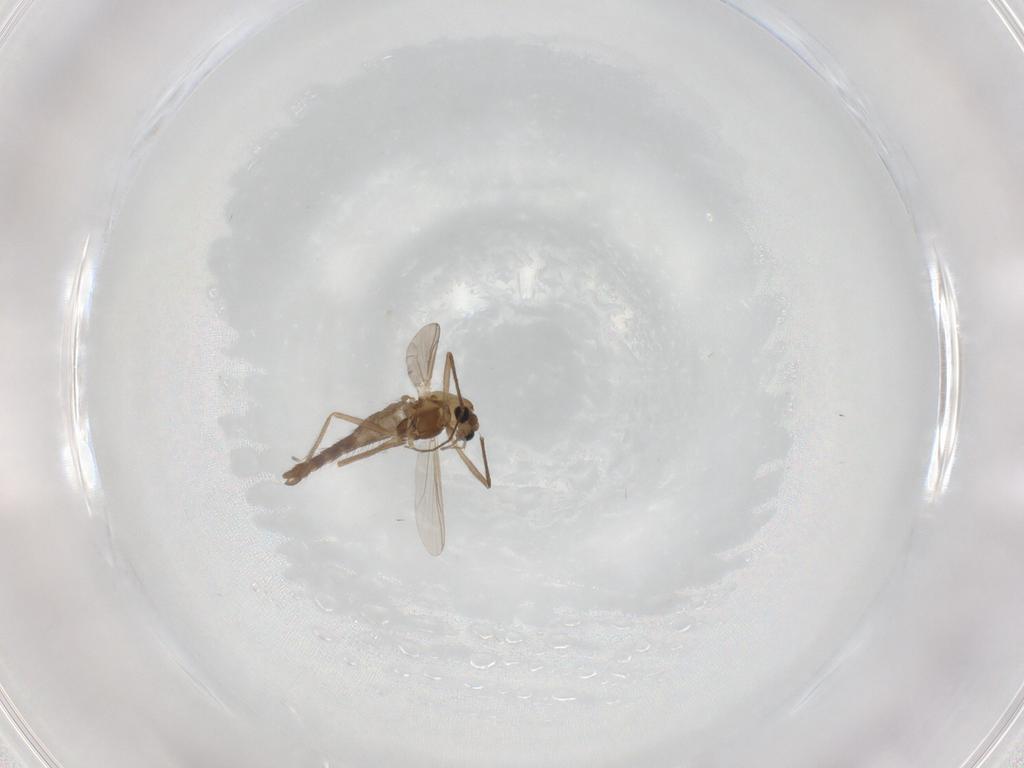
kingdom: Animalia
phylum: Arthropoda
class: Insecta
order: Diptera
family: Chironomidae
